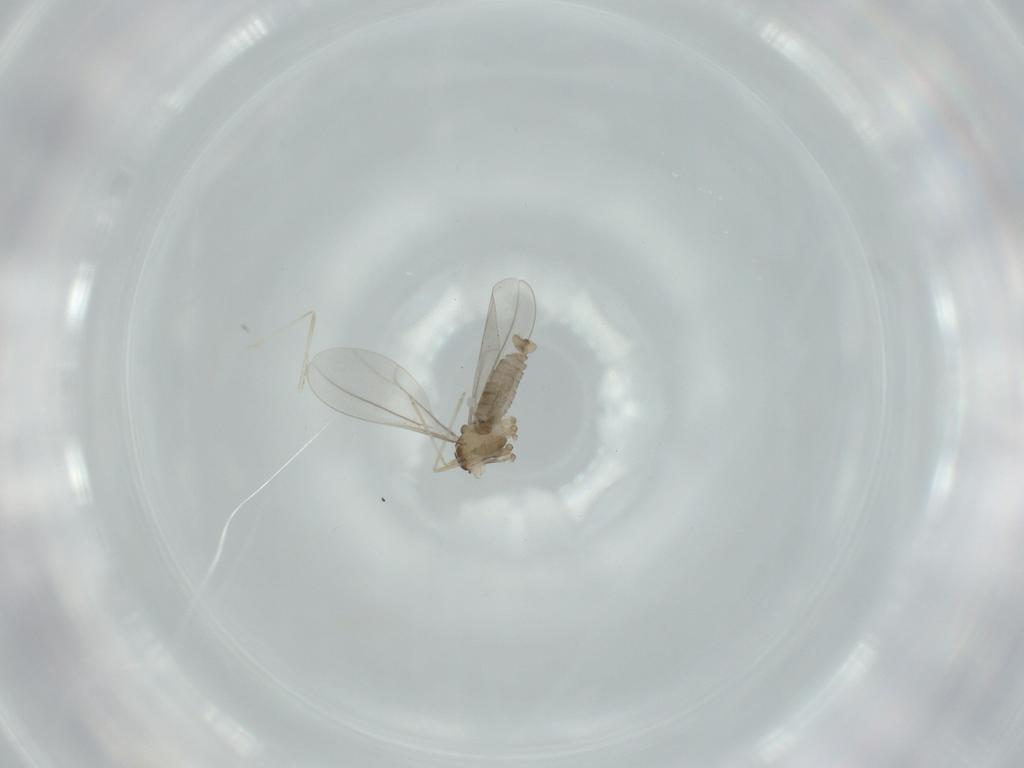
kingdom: Animalia
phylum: Arthropoda
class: Insecta
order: Diptera
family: Cecidomyiidae
